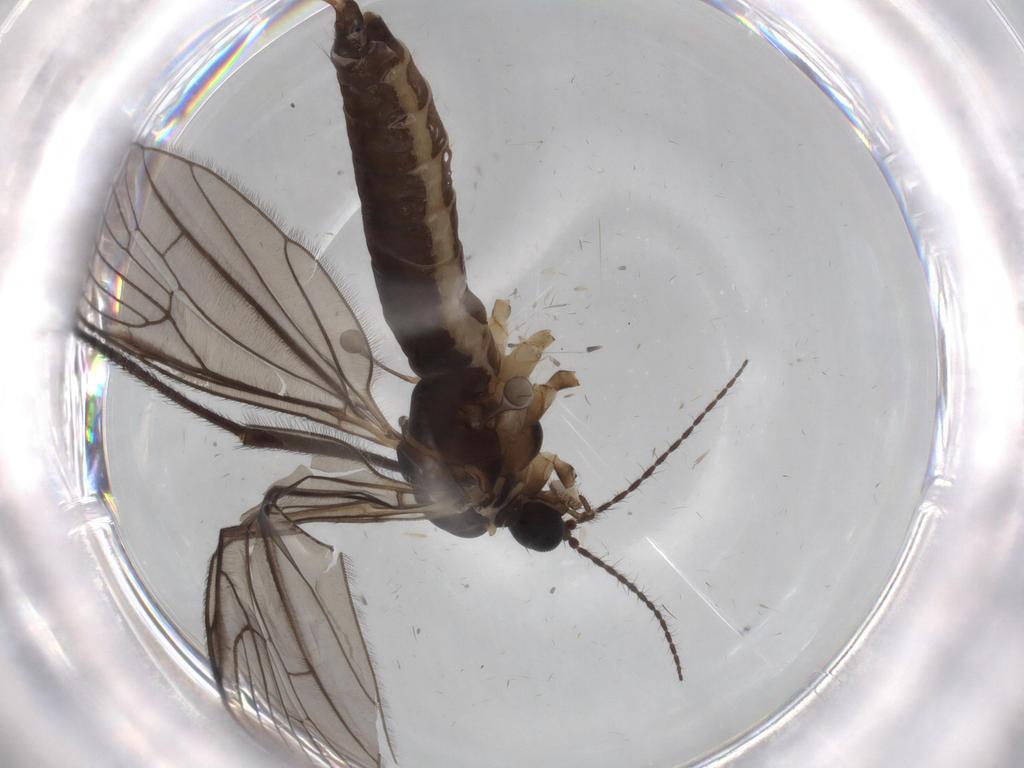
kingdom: Animalia
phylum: Arthropoda
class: Insecta
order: Diptera
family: Limoniidae
